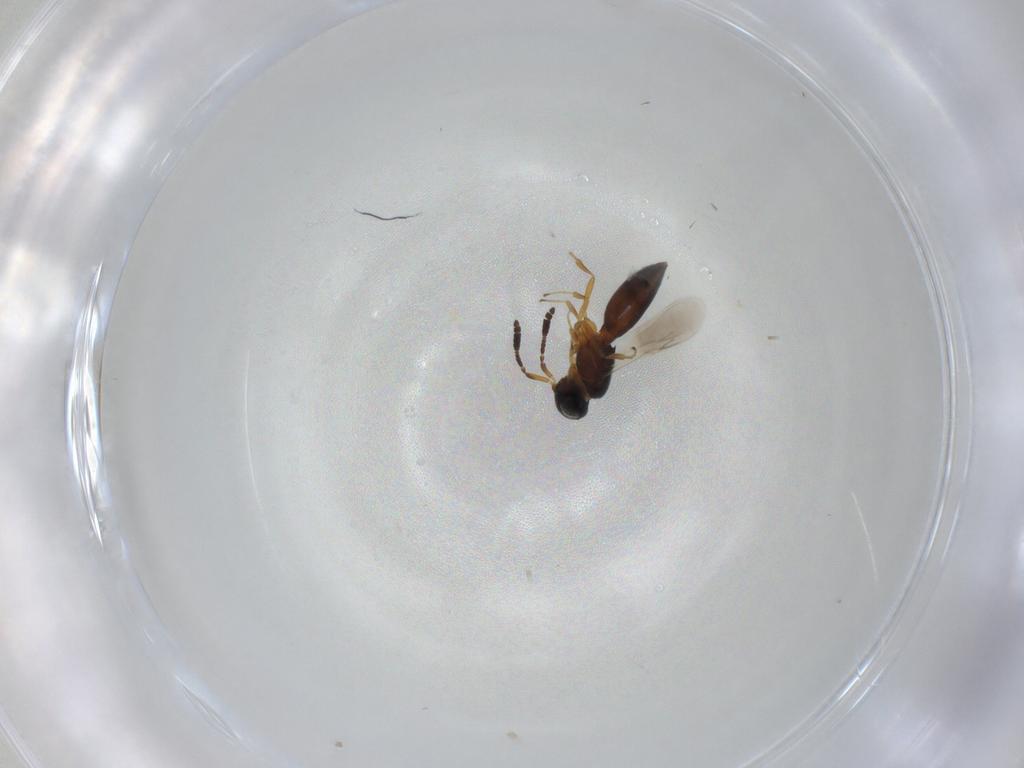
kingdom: Animalia
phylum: Arthropoda
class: Insecta
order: Hymenoptera
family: Scelionidae
